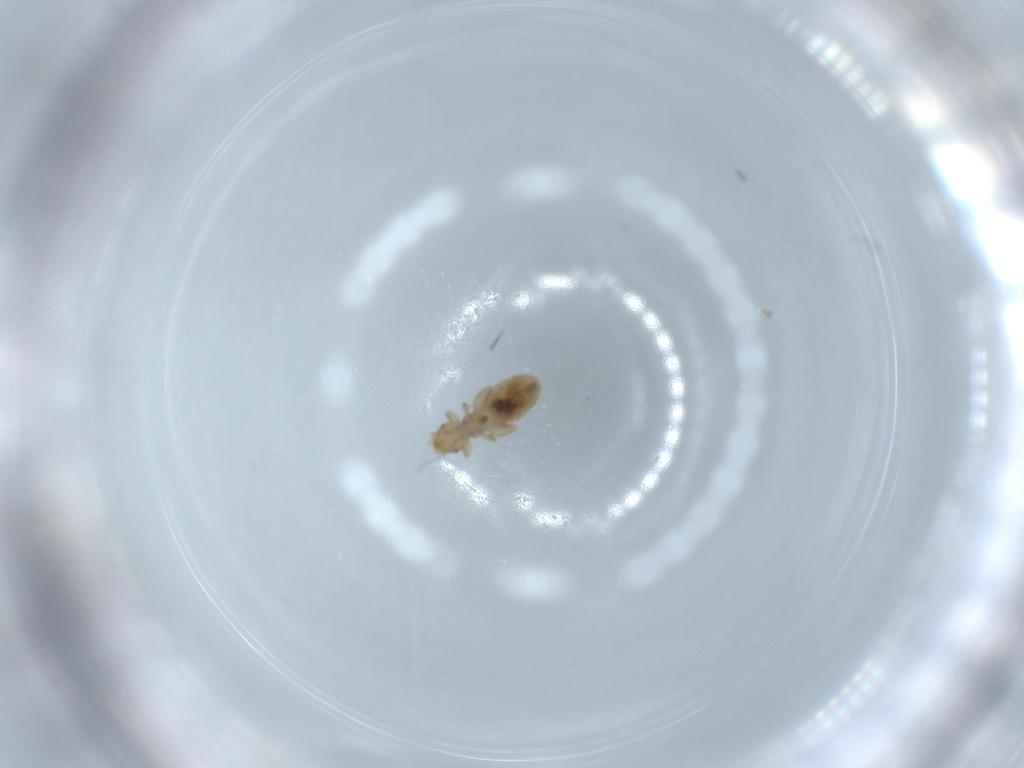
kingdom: Animalia
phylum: Arthropoda
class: Insecta
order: Psocodea
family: Liposcelididae
